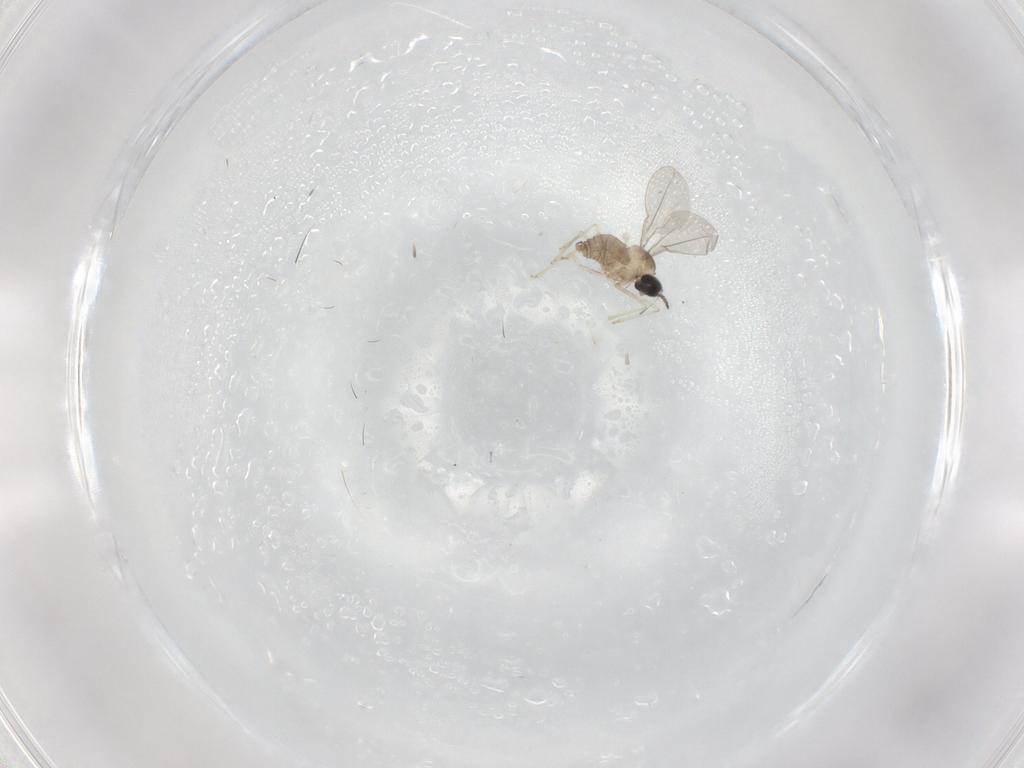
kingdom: Animalia
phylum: Arthropoda
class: Insecta
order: Diptera
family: Cecidomyiidae
